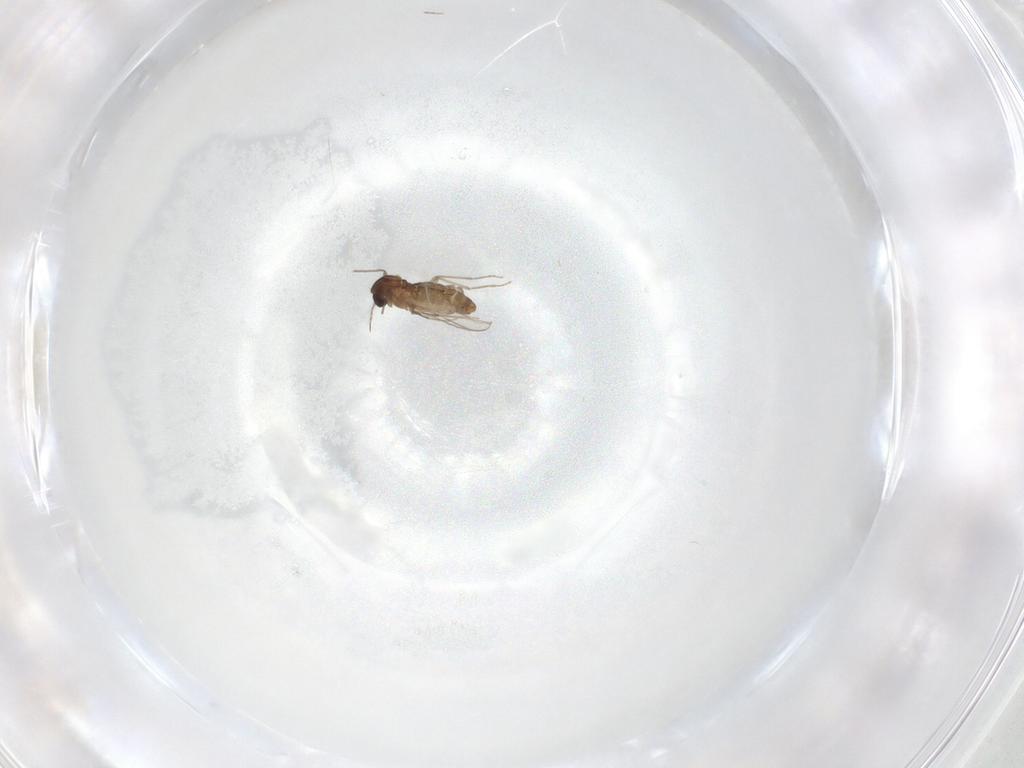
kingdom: Animalia
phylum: Arthropoda
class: Insecta
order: Diptera
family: Chironomidae
